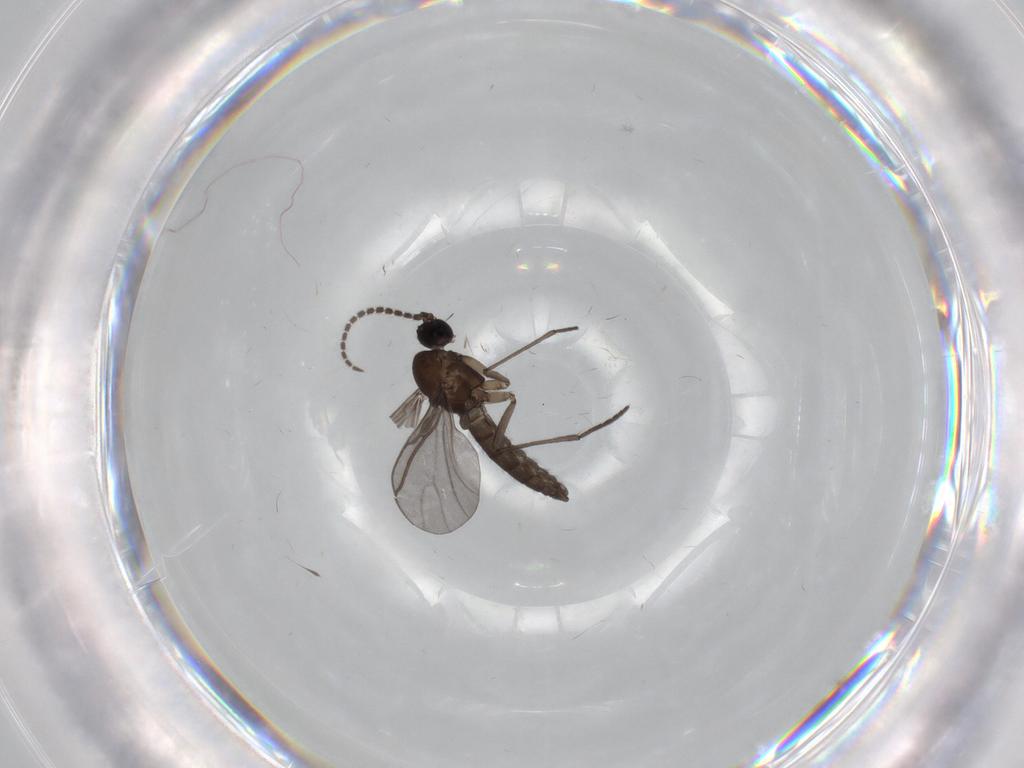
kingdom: Animalia
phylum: Arthropoda
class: Insecta
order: Diptera
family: Sciaridae
